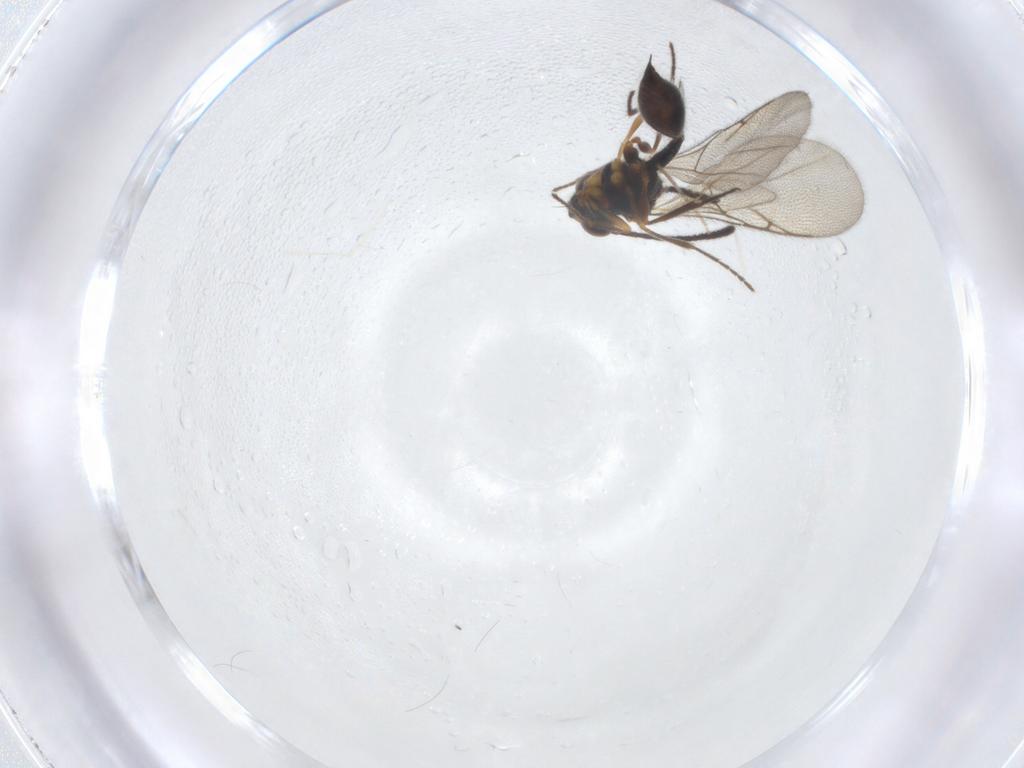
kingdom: Animalia
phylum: Arthropoda
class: Insecta
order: Hymenoptera
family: Diapriidae
